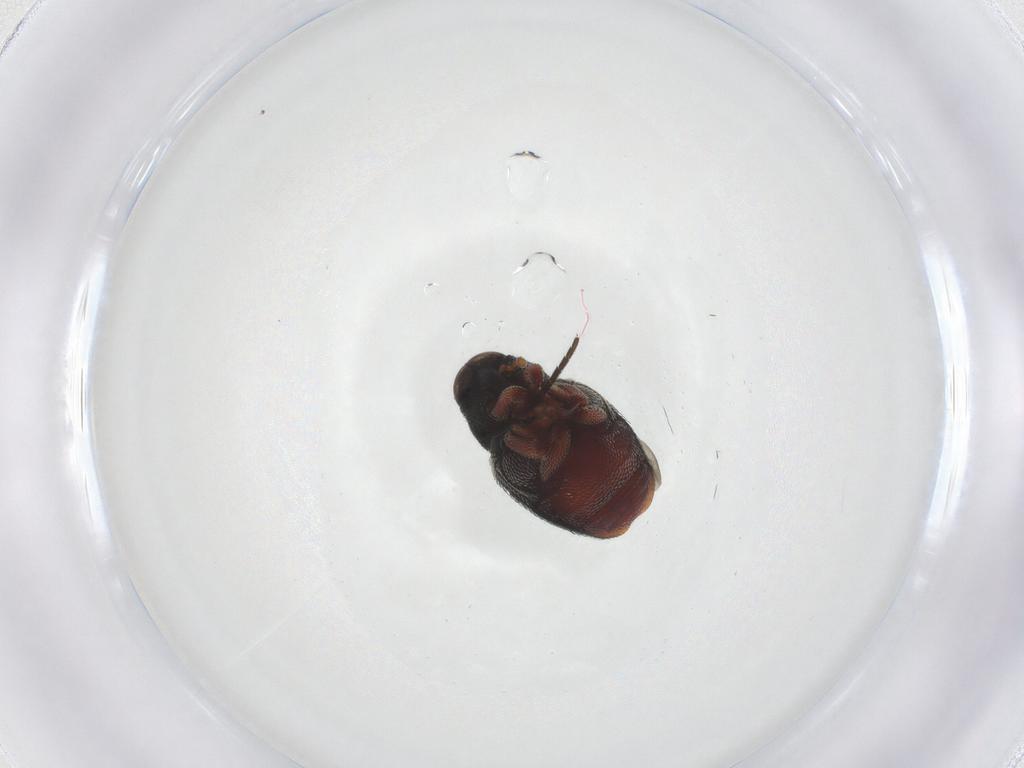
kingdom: Animalia
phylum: Arthropoda
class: Insecta
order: Coleoptera
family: Curculionidae
